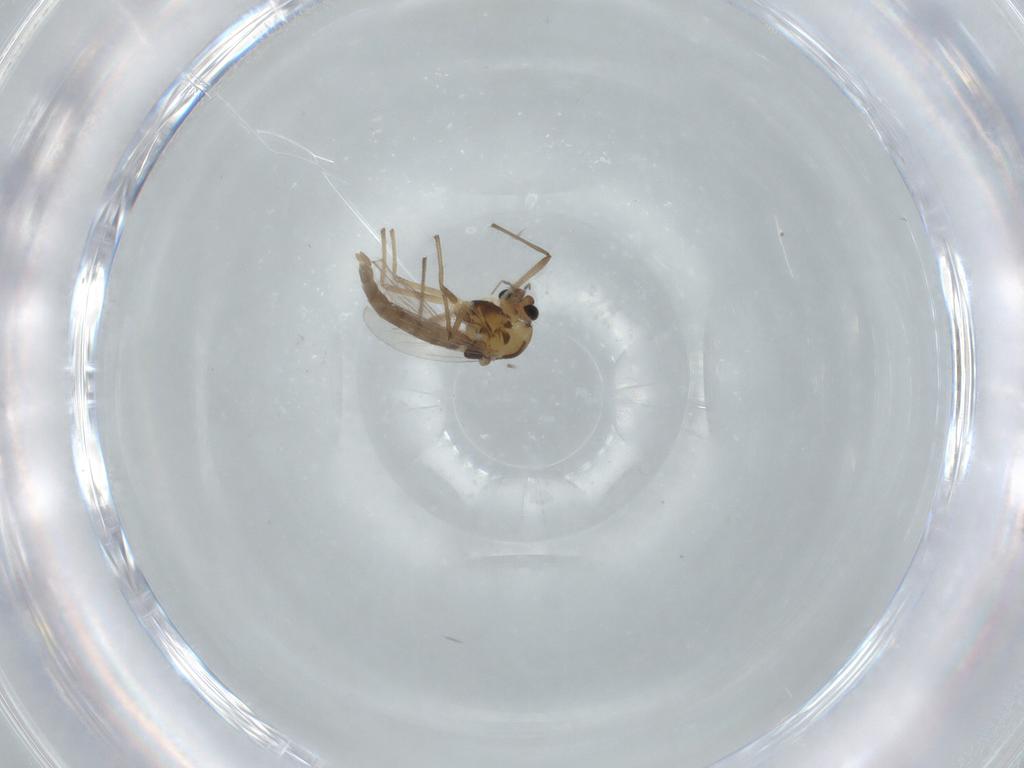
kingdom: Animalia
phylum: Arthropoda
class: Insecta
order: Diptera
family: Chironomidae
